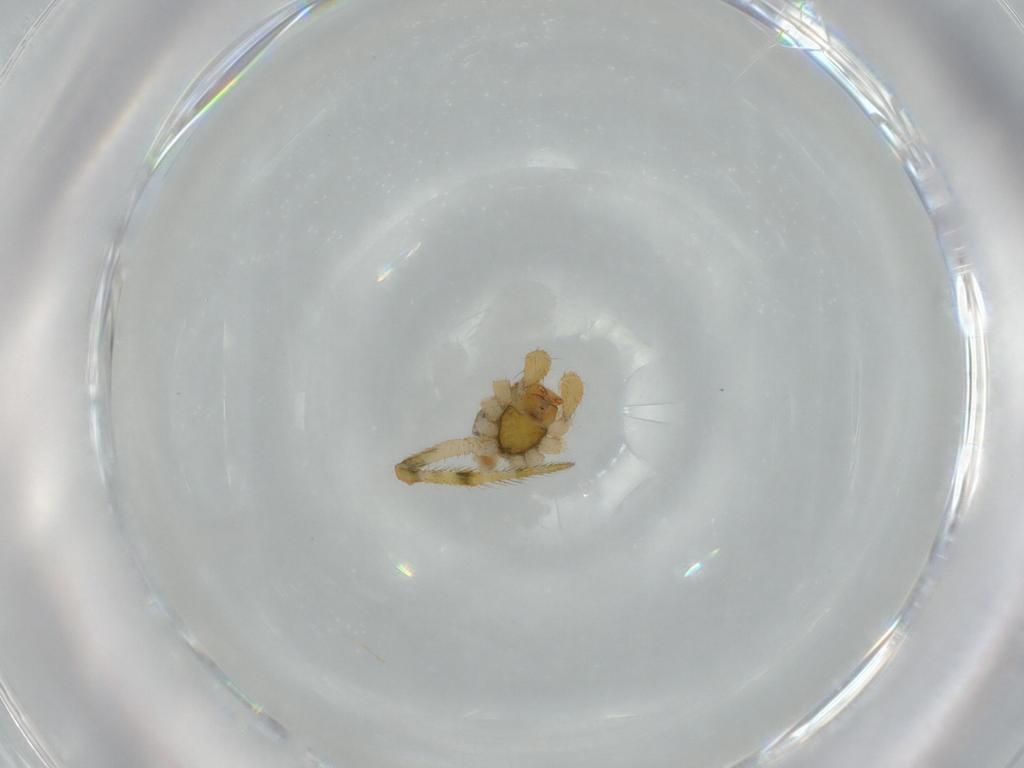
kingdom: Animalia
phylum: Arthropoda
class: Arachnida
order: Araneae
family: Theridiidae
